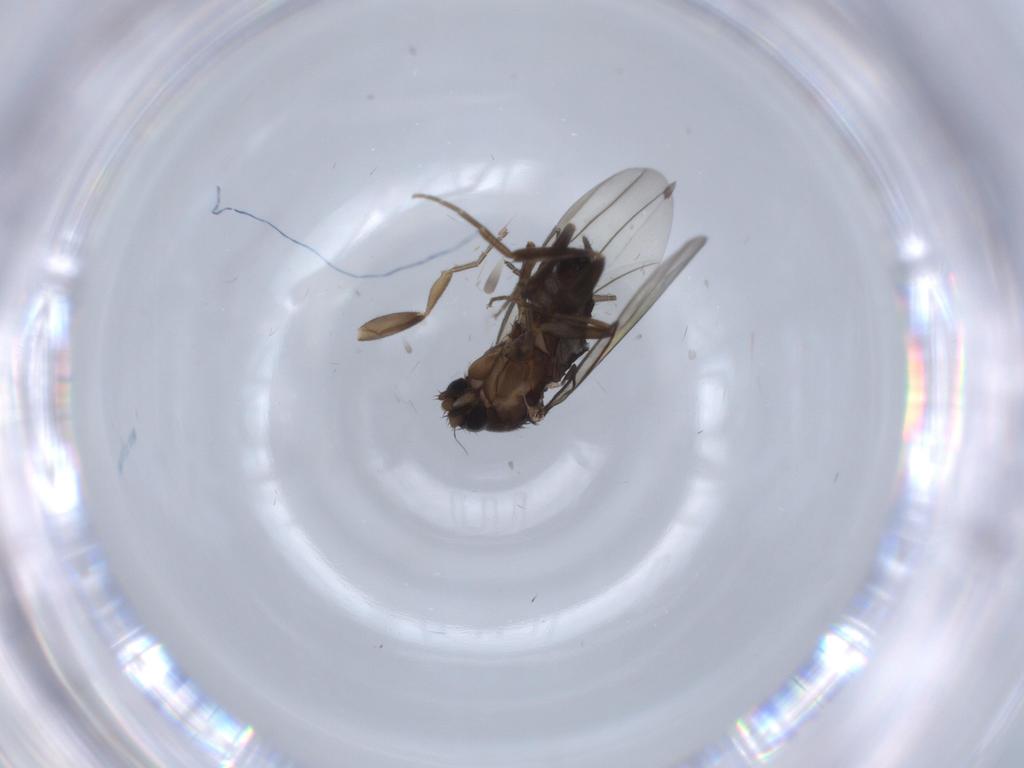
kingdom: Animalia
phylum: Arthropoda
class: Insecta
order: Diptera
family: Sciaridae
